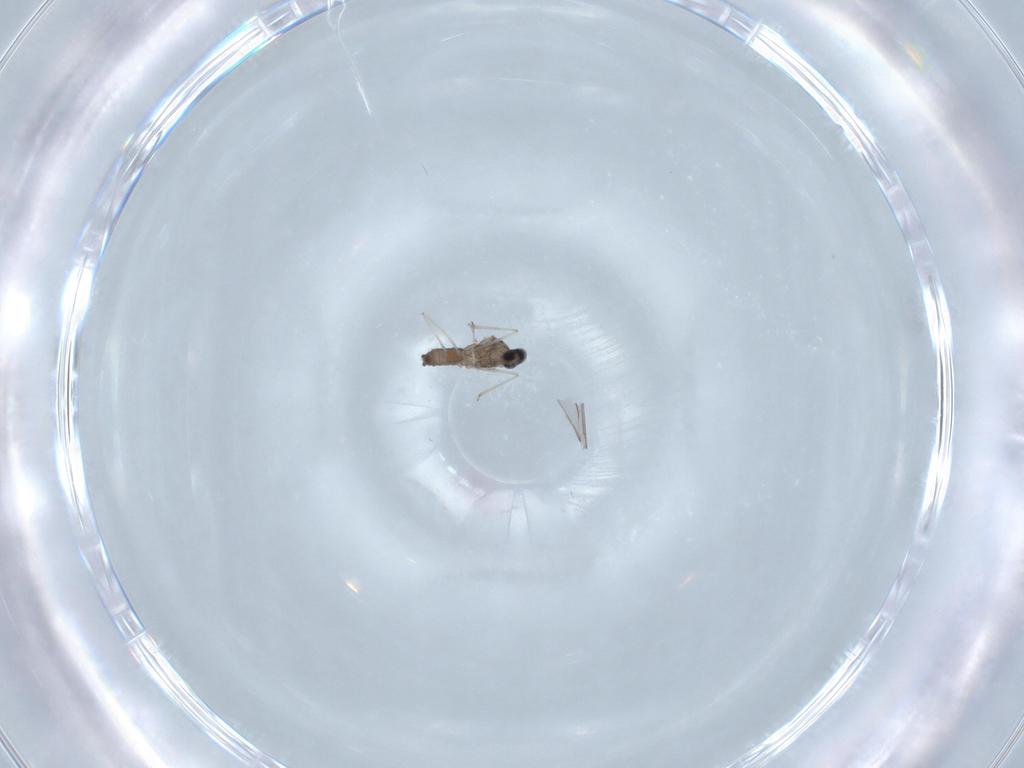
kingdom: Animalia
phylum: Arthropoda
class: Insecta
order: Diptera
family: Cecidomyiidae
